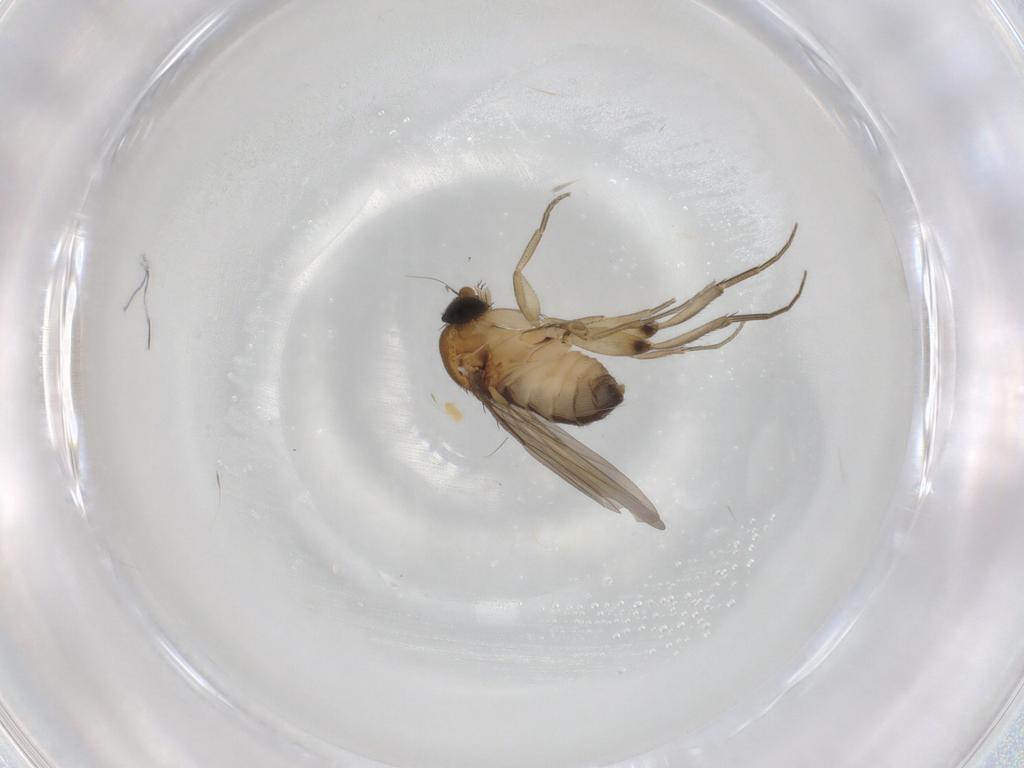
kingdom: Animalia
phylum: Arthropoda
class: Insecta
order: Diptera
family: Phoridae
